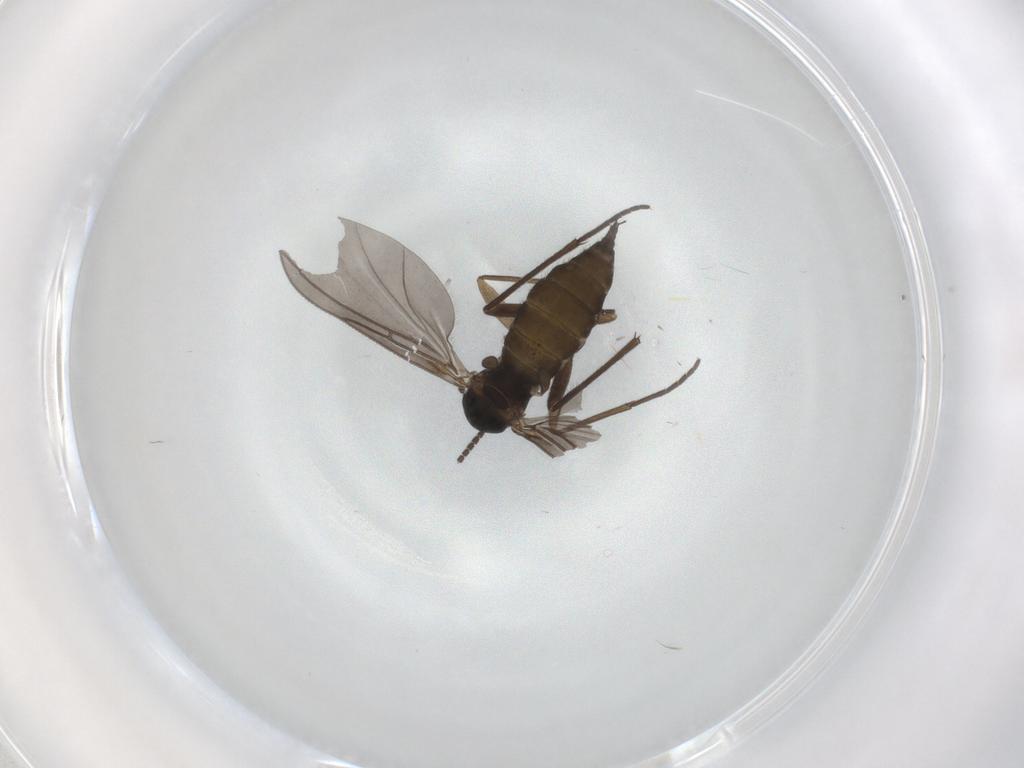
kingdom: Animalia
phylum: Arthropoda
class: Insecta
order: Diptera
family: Sciaridae
